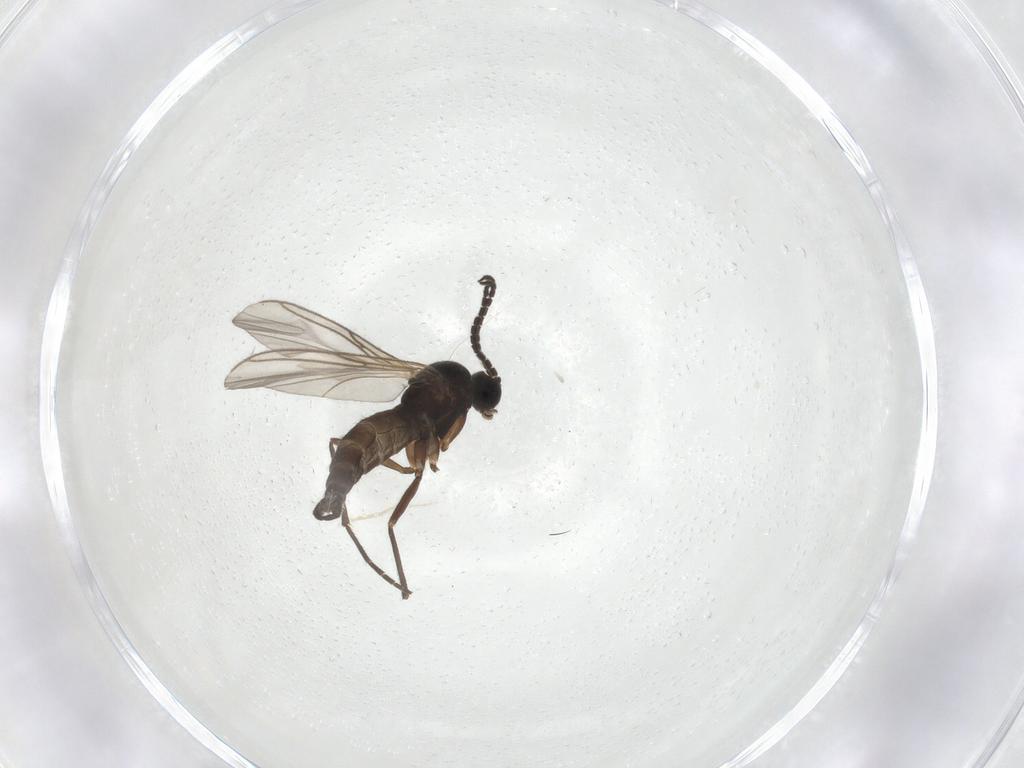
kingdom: Animalia
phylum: Arthropoda
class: Insecta
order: Diptera
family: Sciaridae
